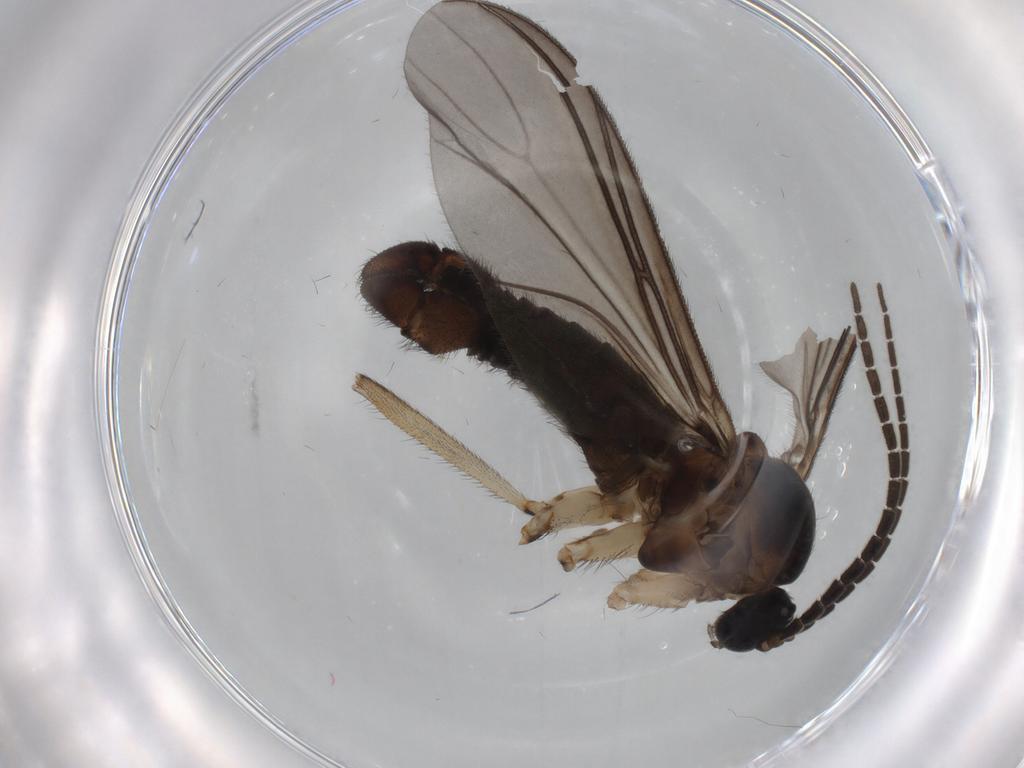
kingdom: Animalia
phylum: Arthropoda
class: Insecta
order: Diptera
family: Sciaridae
